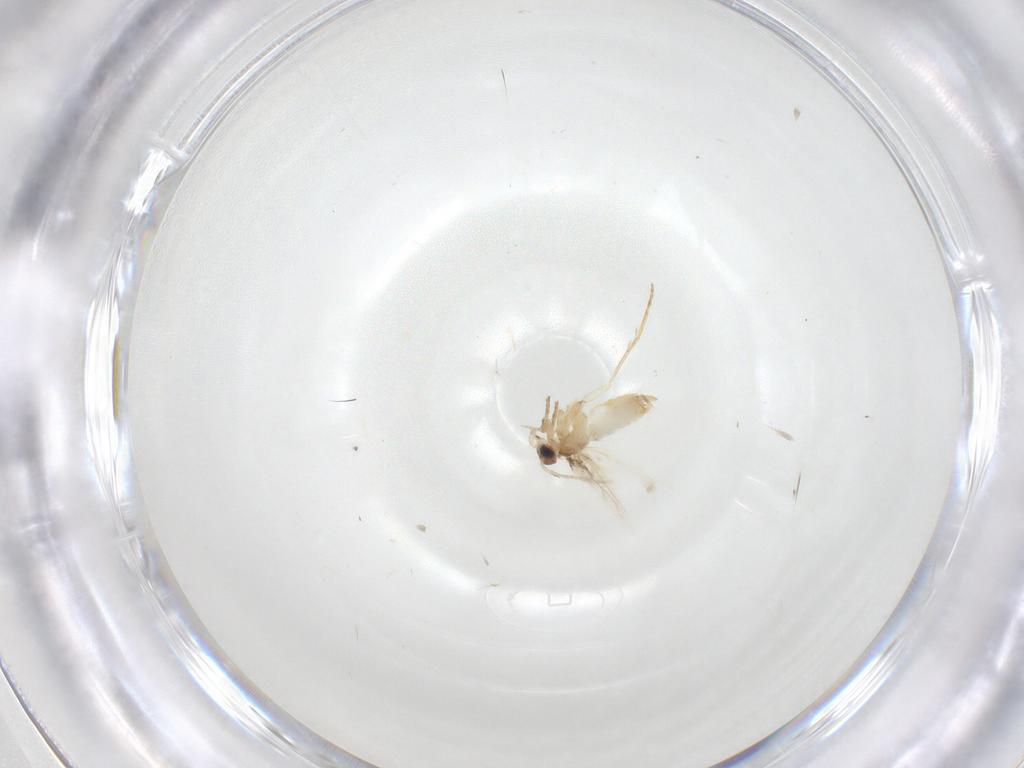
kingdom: Animalia
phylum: Arthropoda
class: Insecta
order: Lepidoptera
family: Nepticulidae
